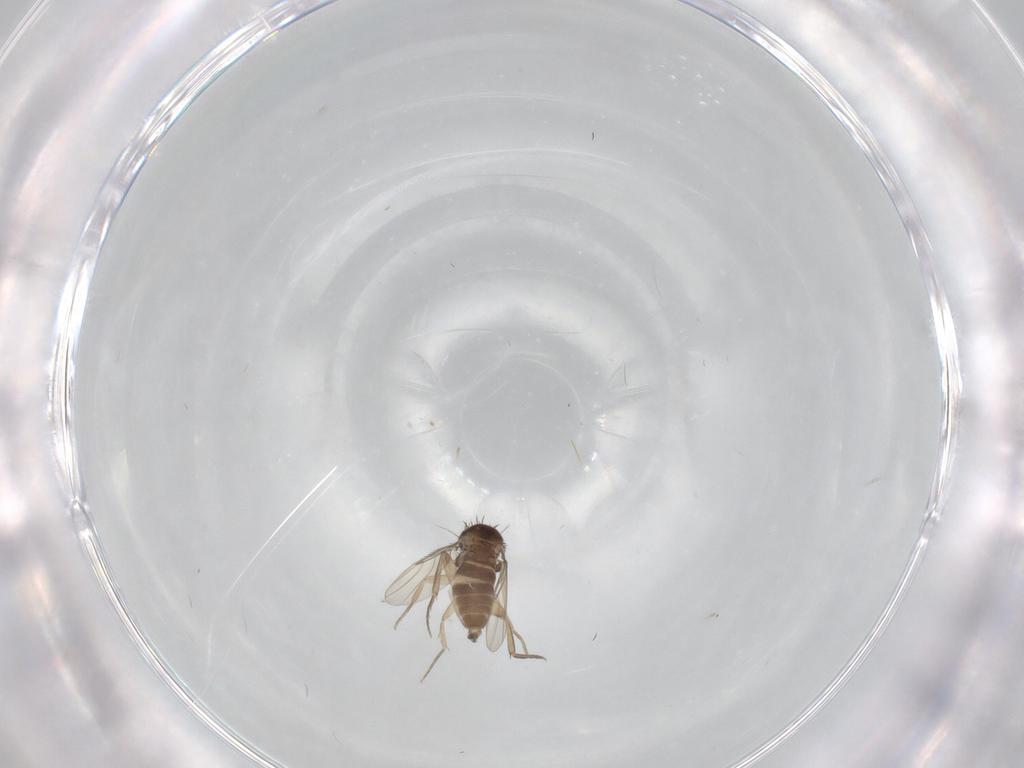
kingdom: Animalia
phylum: Arthropoda
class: Insecta
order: Diptera
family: Phoridae
